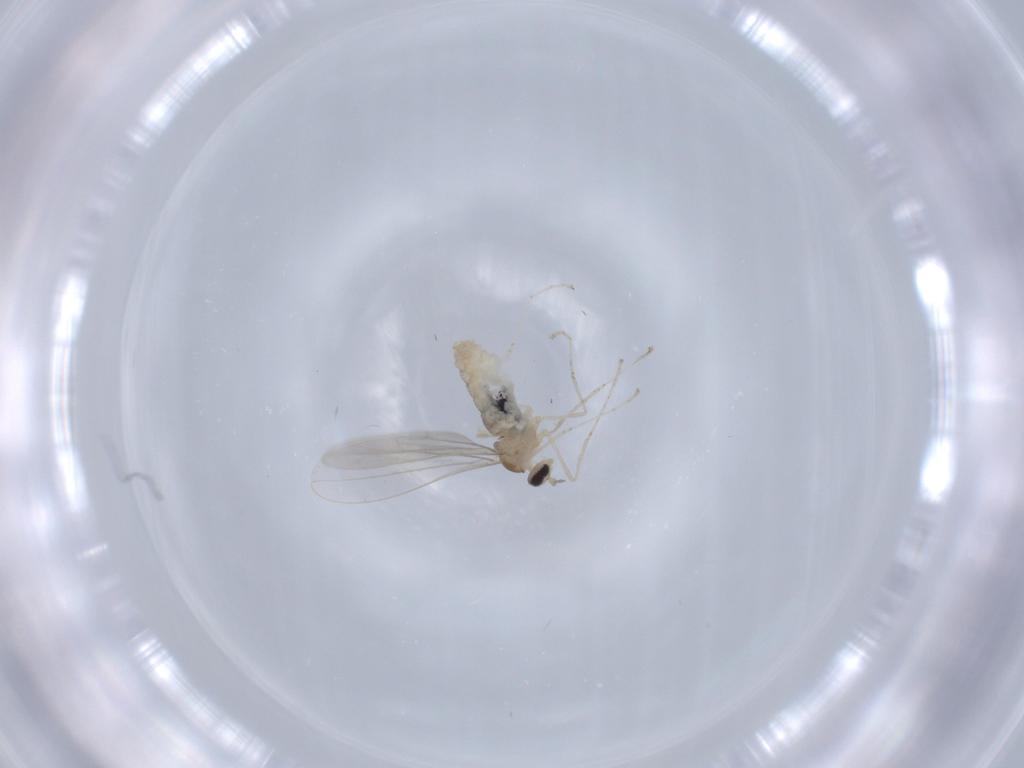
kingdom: Animalia
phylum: Arthropoda
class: Insecta
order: Diptera
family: Cecidomyiidae
